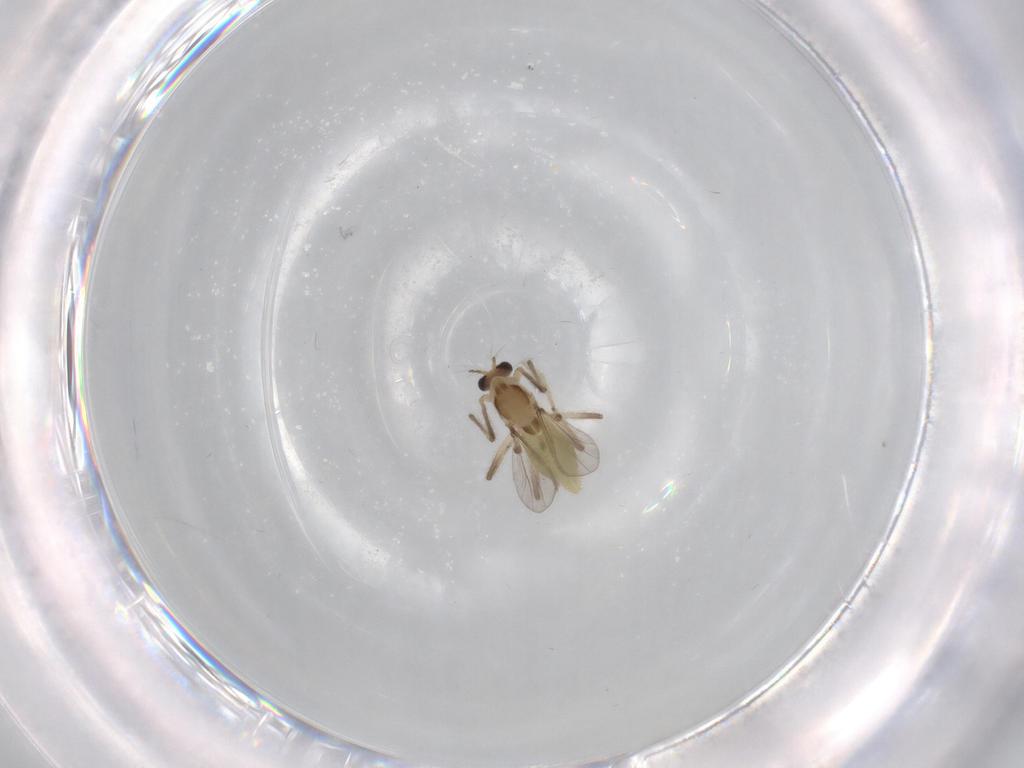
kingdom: Animalia
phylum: Arthropoda
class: Insecta
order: Diptera
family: Chironomidae
